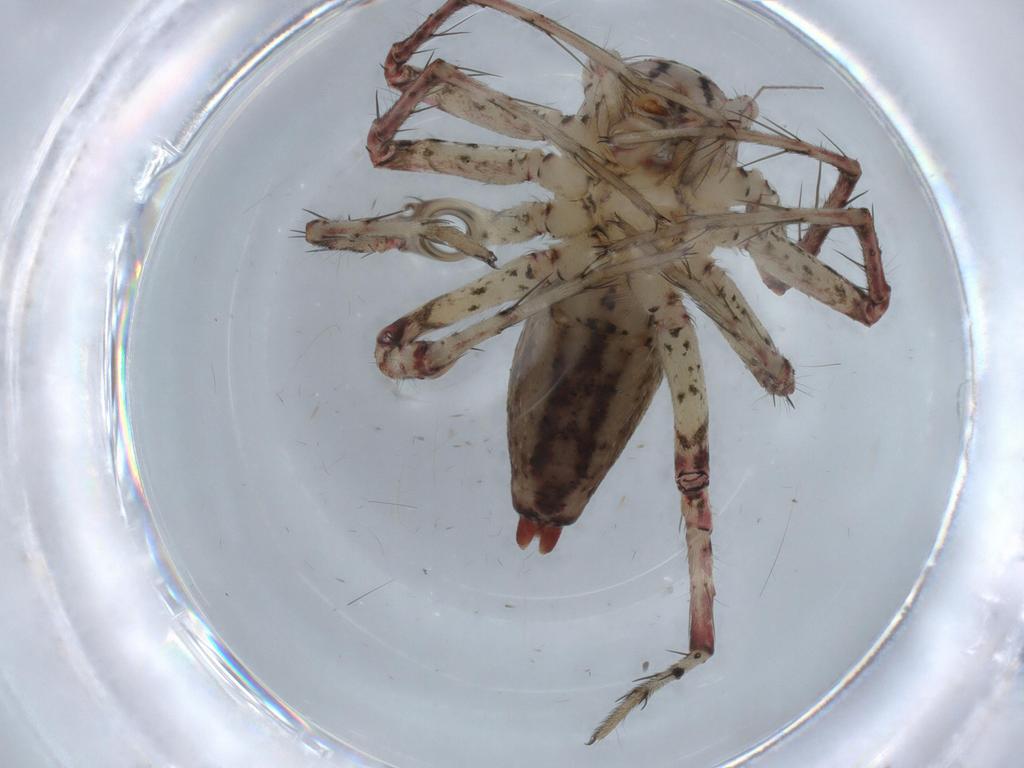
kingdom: Animalia
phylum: Arthropoda
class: Arachnida
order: Araneae
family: Oxyopidae
